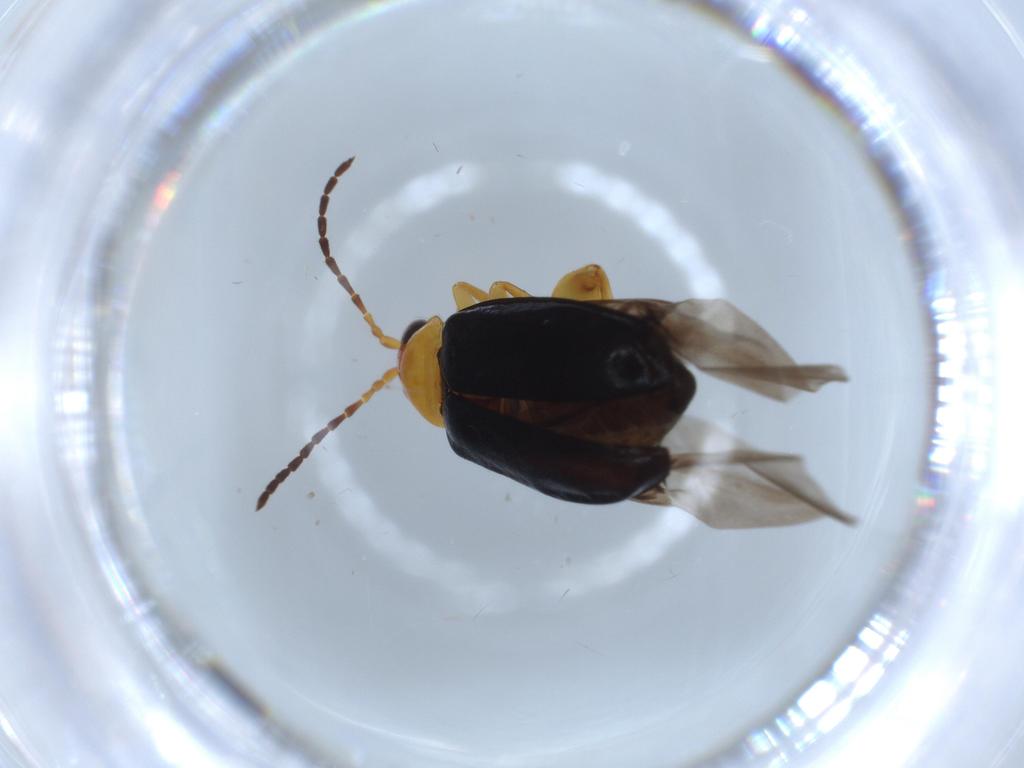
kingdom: Animalia
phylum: Arthropoda
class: Insecta
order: Coleoptera
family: Chrysomelidae
